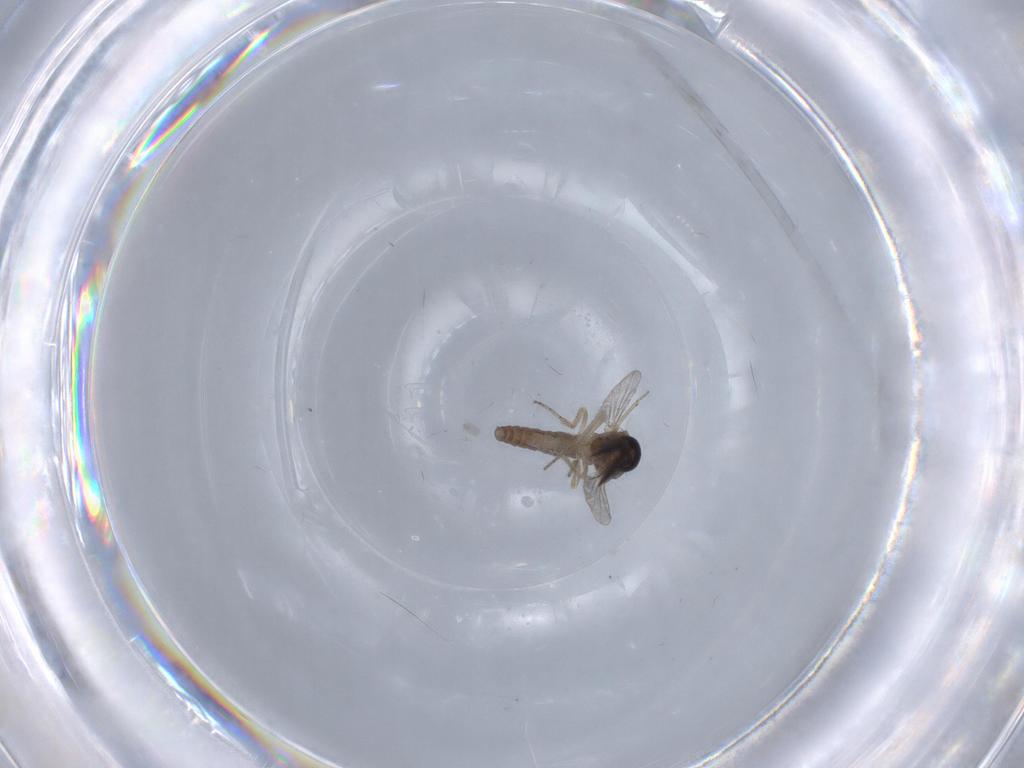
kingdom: Animalia
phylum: Arthropoda
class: Insecta
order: Diptera
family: Ceratopogonidae
